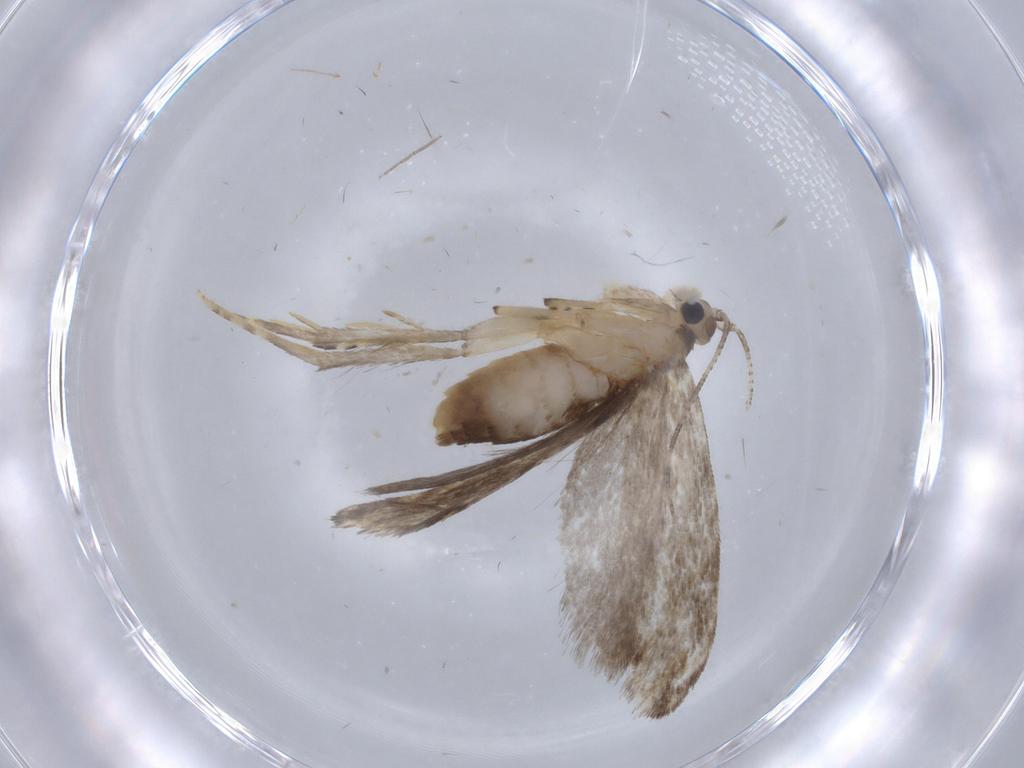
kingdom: Animalia
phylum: Arthropoda
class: Insecta
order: Lepidoptera
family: Tineidae
